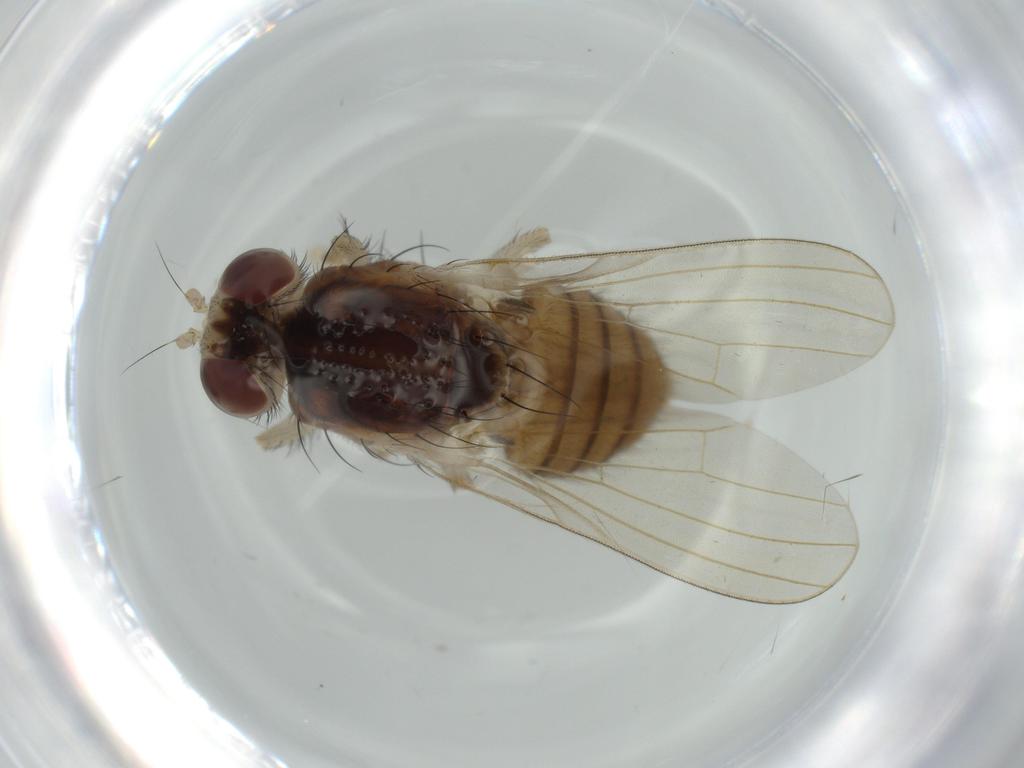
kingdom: Animalia
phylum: Arthropoda
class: Insecta
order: Diptera
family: Lauxaniidae
